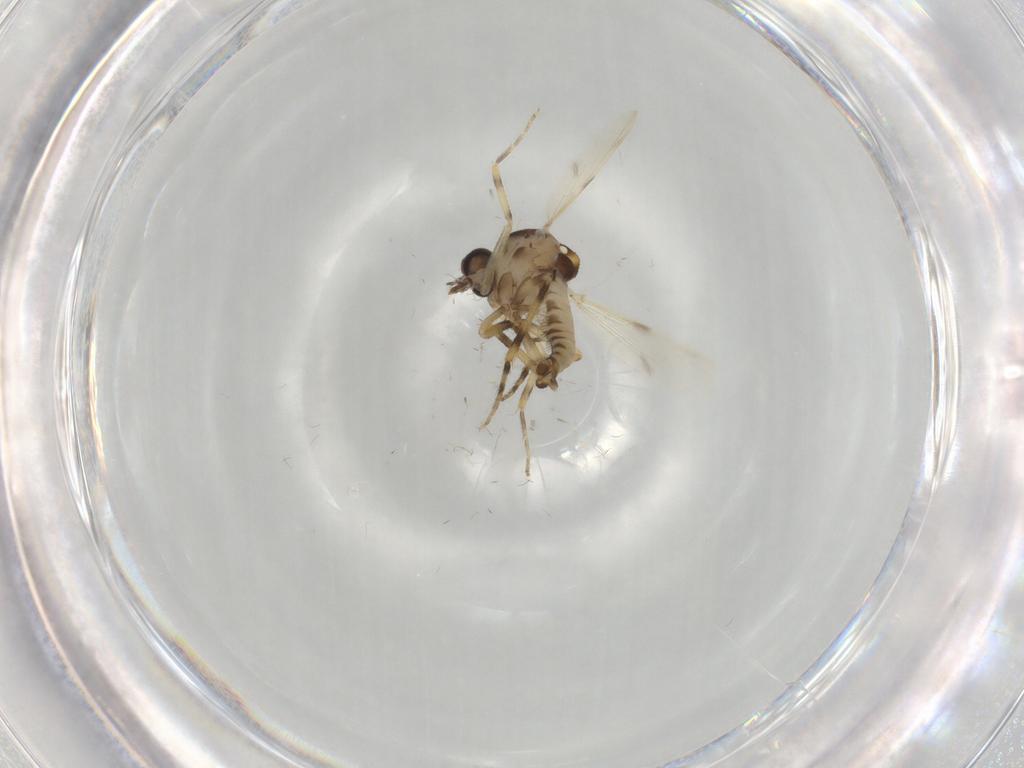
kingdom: Animalia
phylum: Arthropoda
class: Insecta
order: Diptera
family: Ceratopogonidae
